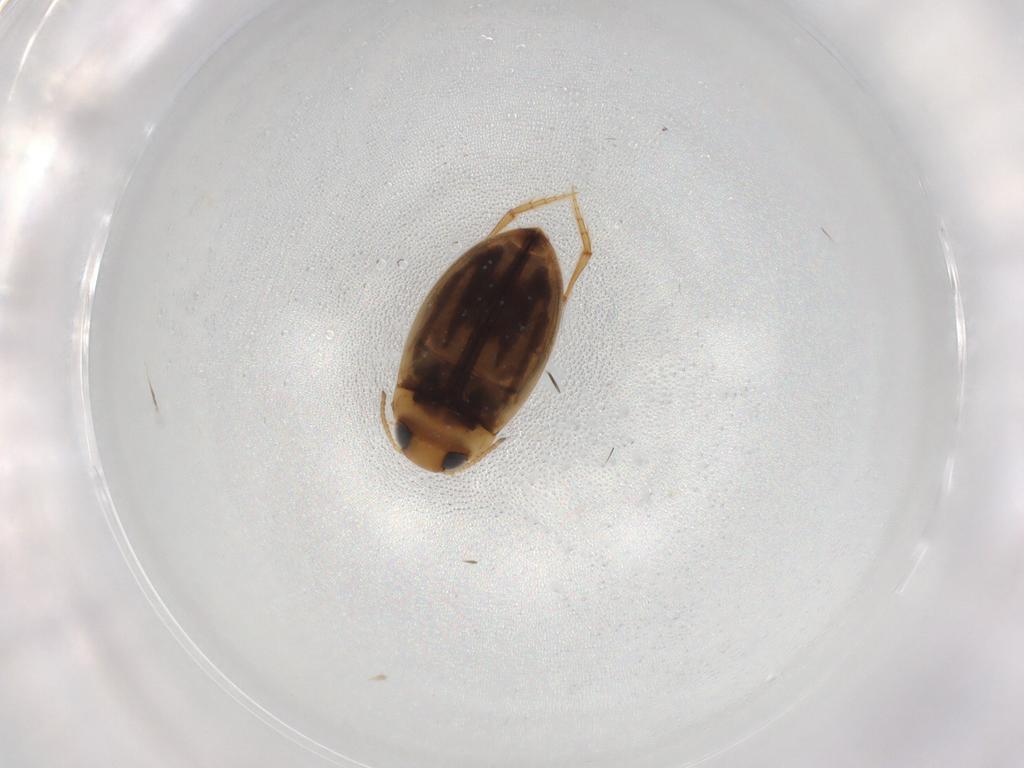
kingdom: Animalia
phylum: Arthropoda
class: Insecta
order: Coleoptera
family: Dytiscidae
